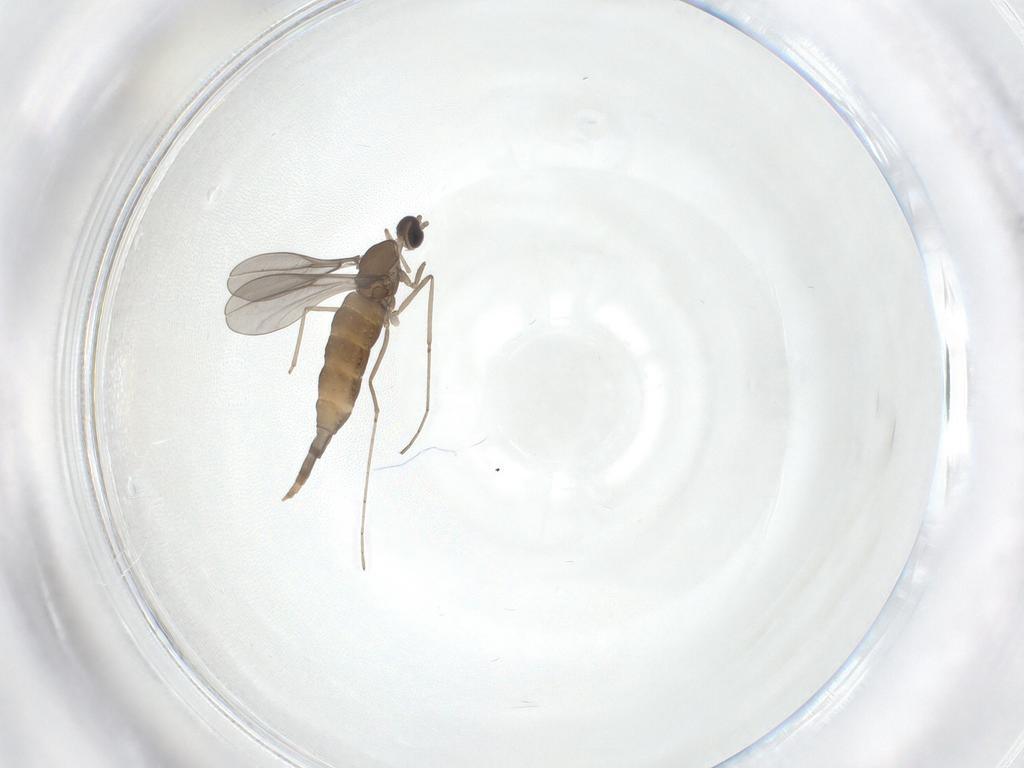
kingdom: Animalia
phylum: Arthropoda
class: Insecta
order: Diptera
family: Cecidomyiidae
